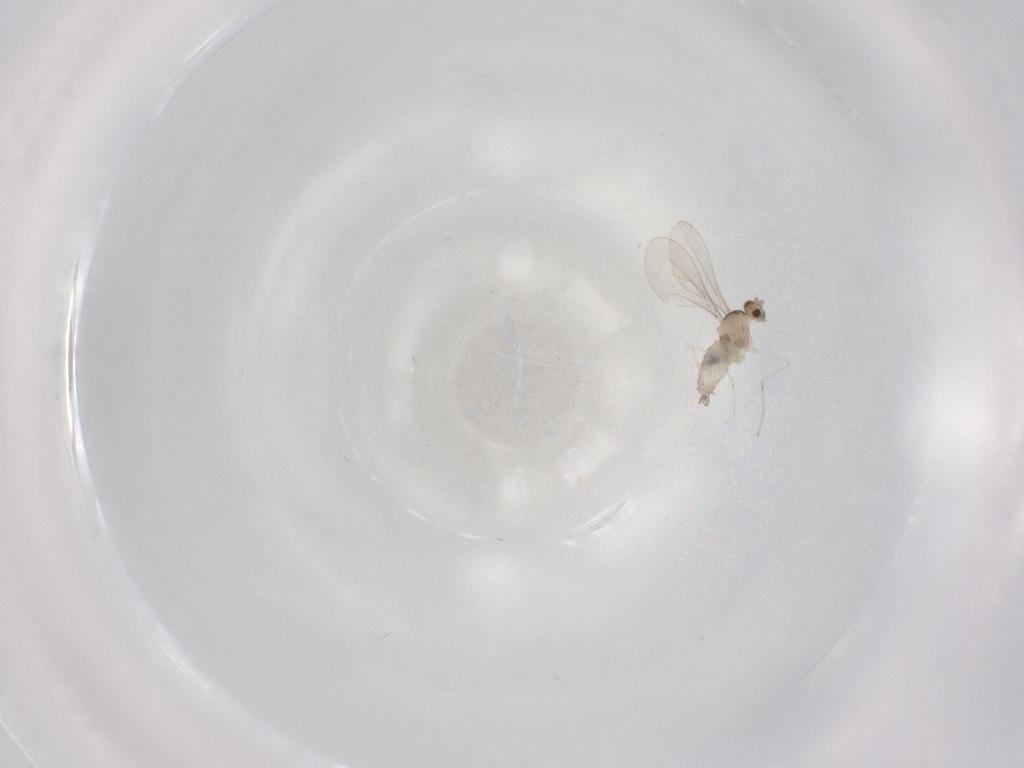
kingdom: Animalia
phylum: Arthropoda
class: Insecta
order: Diptera
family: Cecidomyiidae
